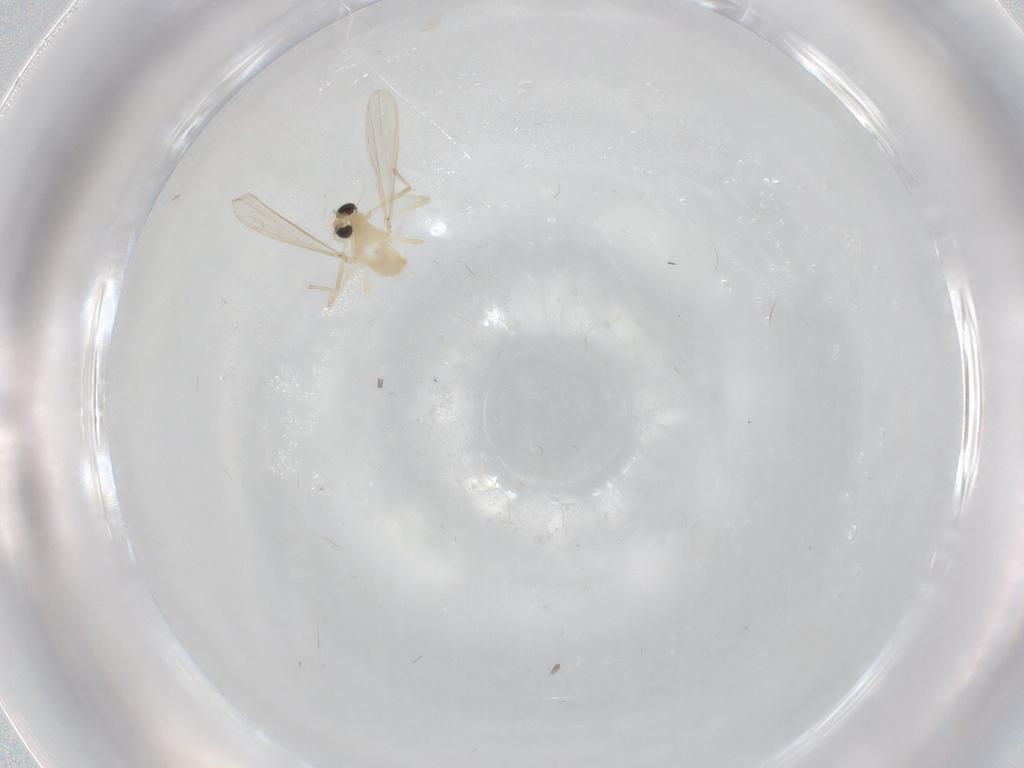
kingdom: Animalia
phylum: Arthropoda
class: Insecta
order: Diptera
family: Chironomidae
